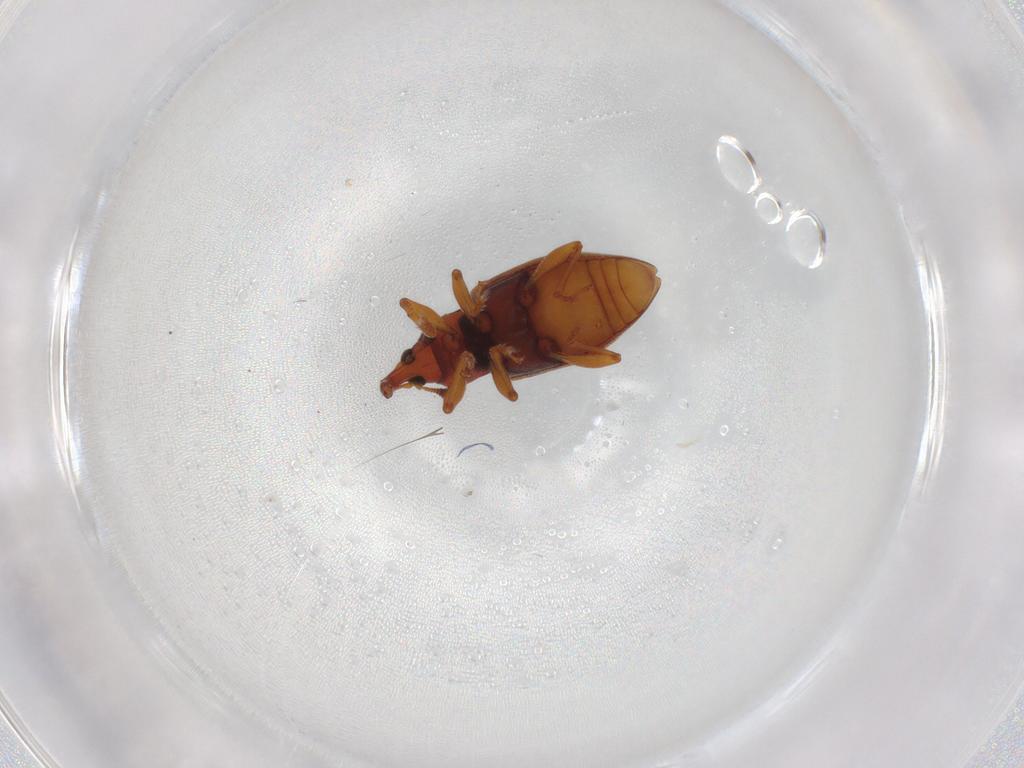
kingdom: Animalia
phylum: Arthropoda
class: Insecta
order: Coleoptera
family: Curculionidae
